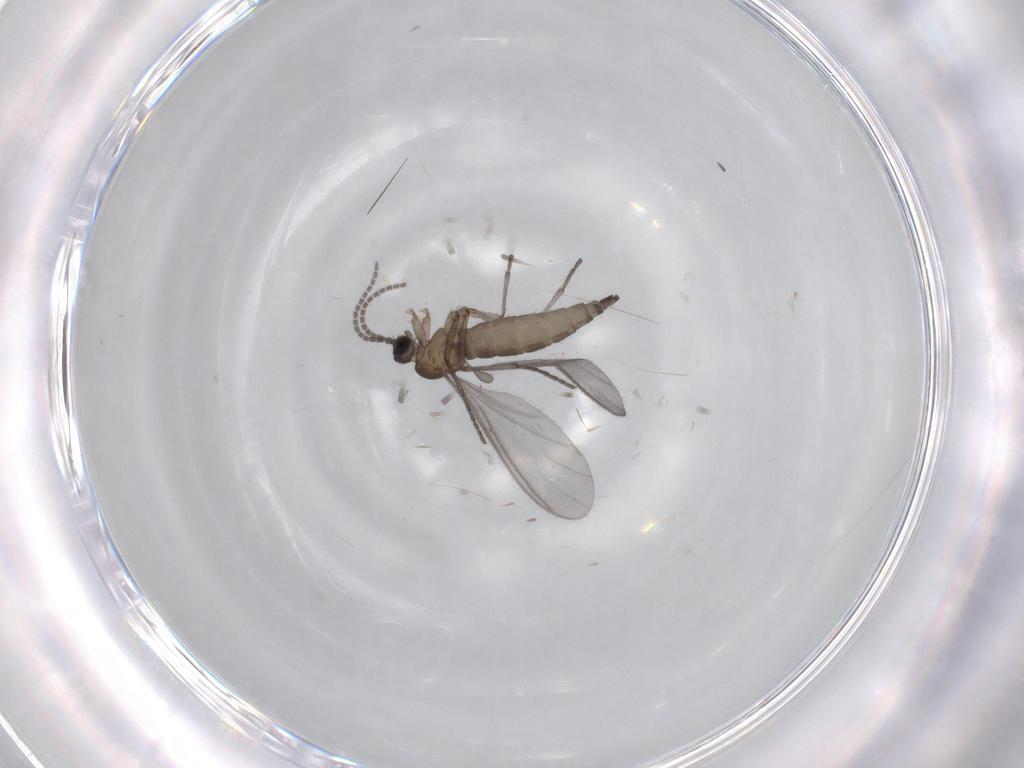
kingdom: Animalia
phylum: Arthropoda
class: Insecta
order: Diptera
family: Sciaridae
